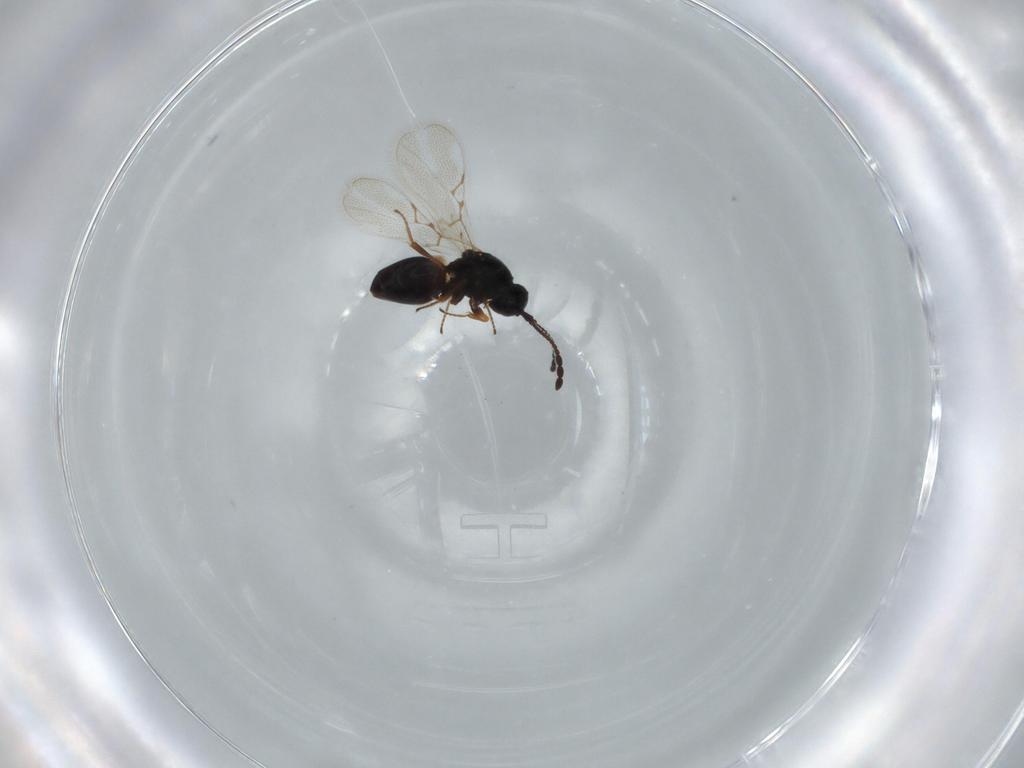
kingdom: Animalia
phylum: Arthropoda
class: Insecta
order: Hymenoptera
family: Figitidae
